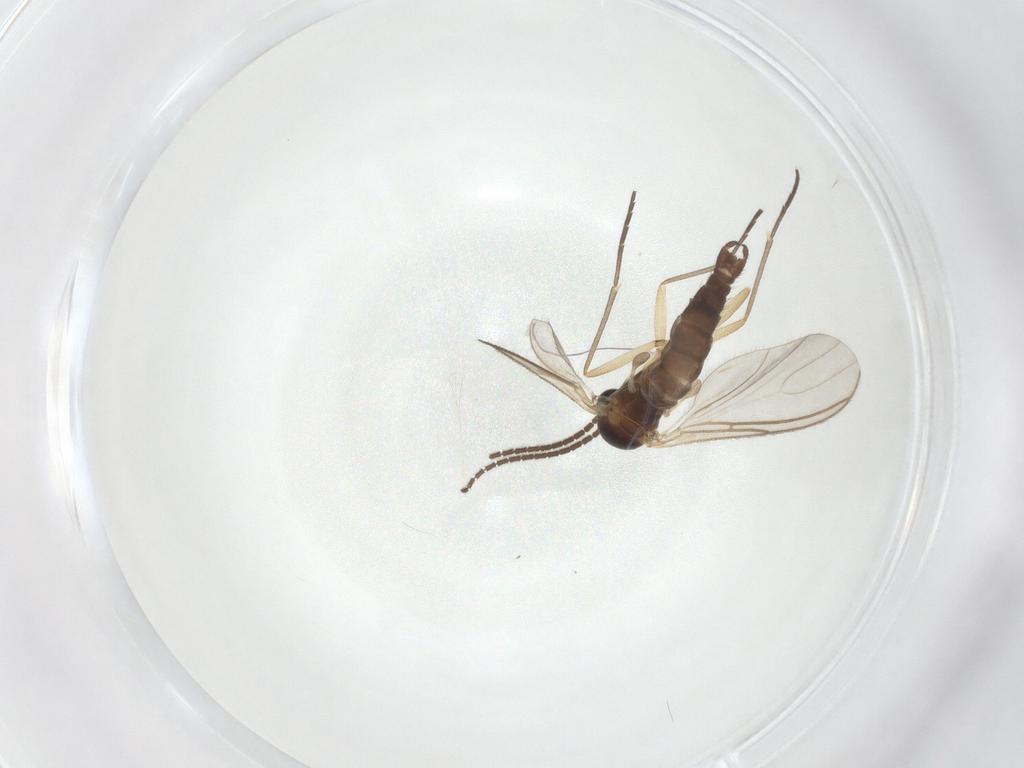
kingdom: Animalia
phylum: Arthropoda
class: Insecta
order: Diptera
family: Sciaridae
